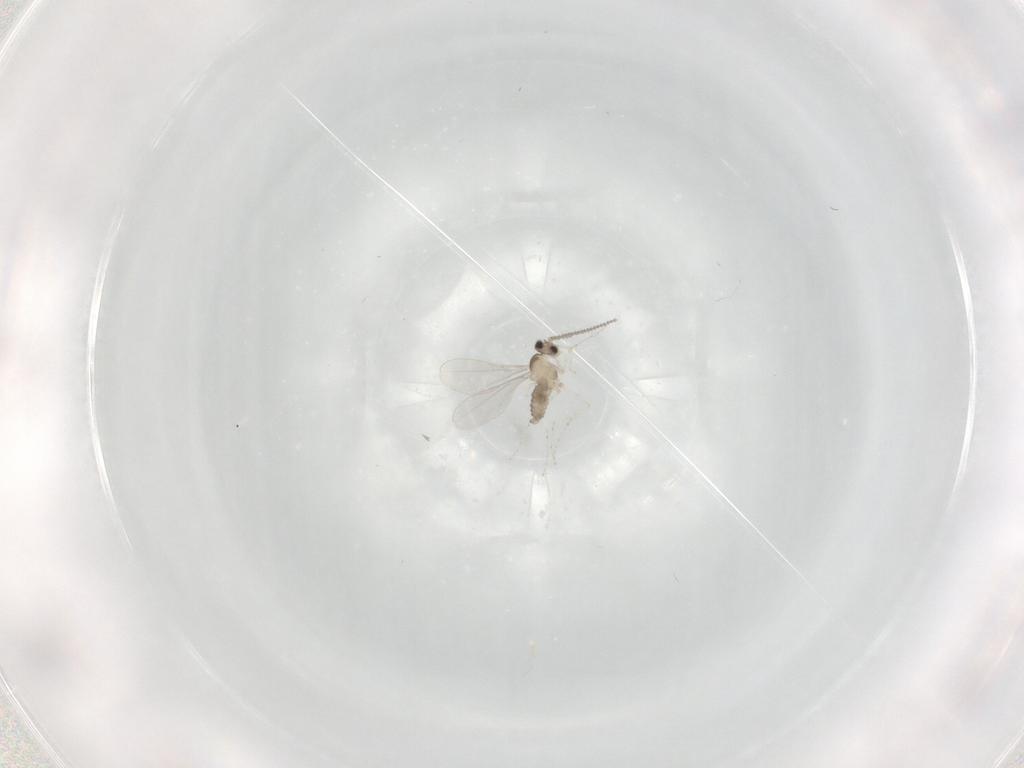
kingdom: Animalia
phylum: Arthropoda
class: Insecta
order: Diptera
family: Cecidomyiidae
